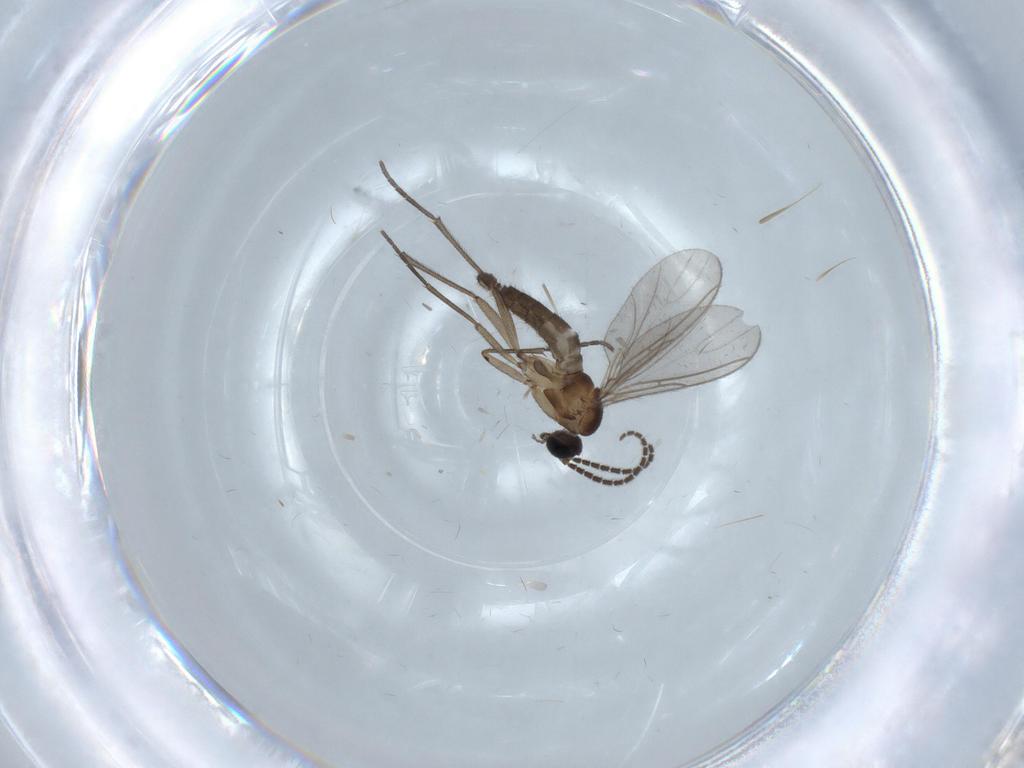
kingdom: Animalia
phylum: Arthropoda
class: Insecta
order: Diptera
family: Sciaridae
